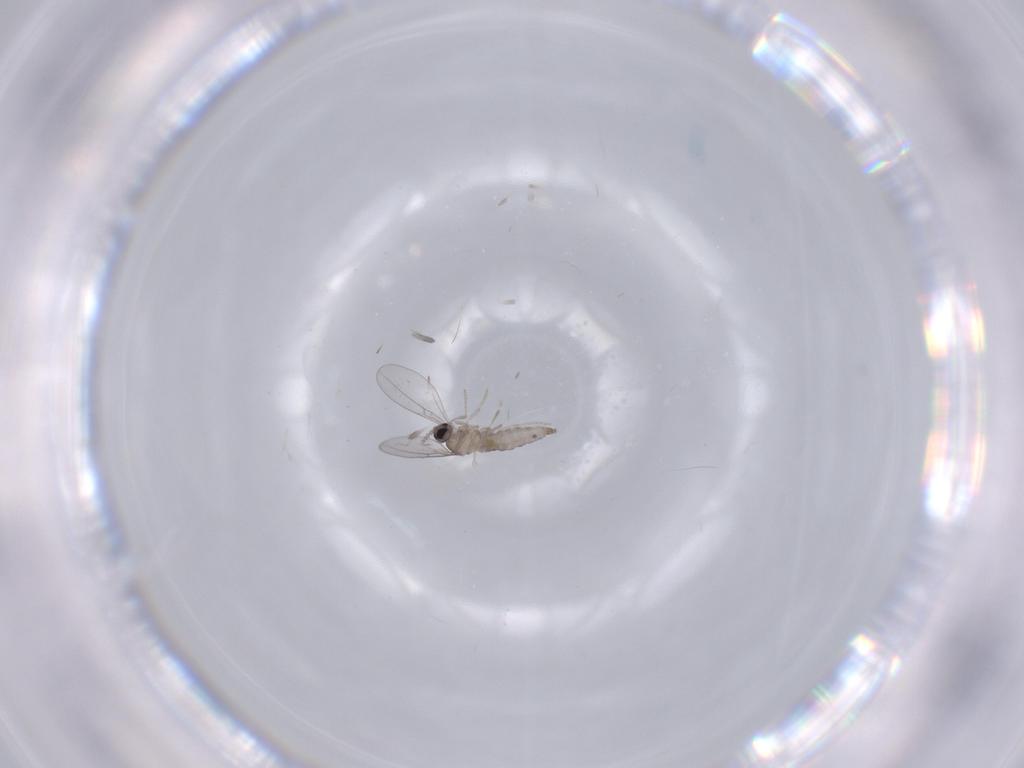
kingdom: Animalia
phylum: Arthropoda
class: Insecta
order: Diptera
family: Cecidomyiidae
